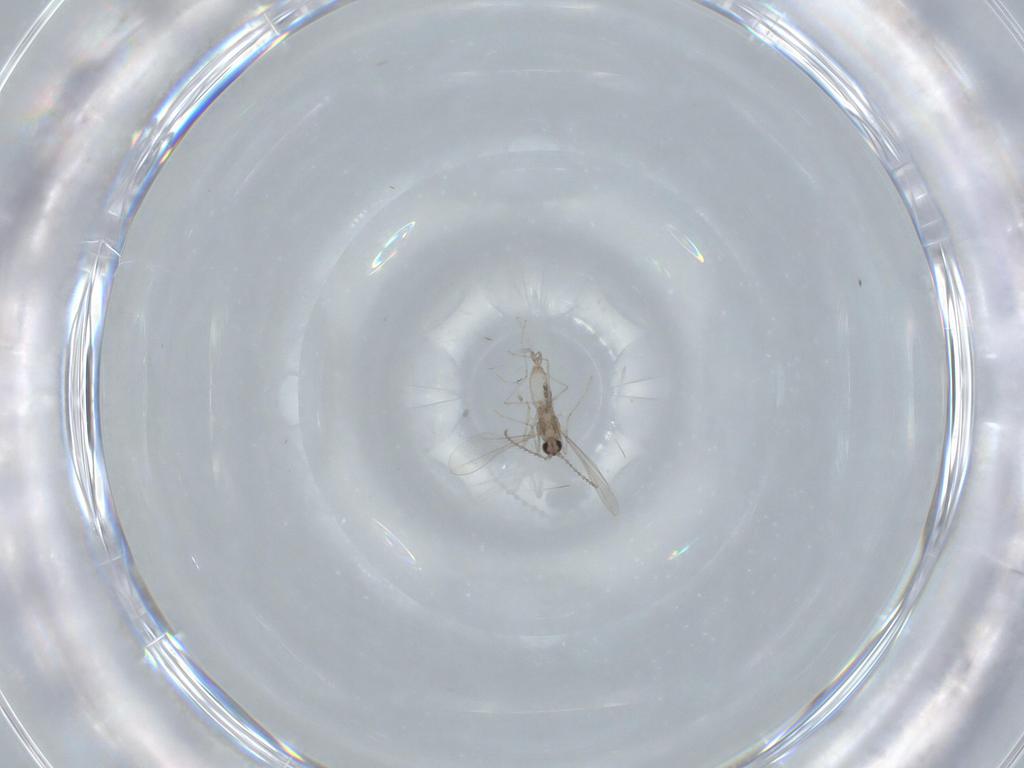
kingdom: Animalia
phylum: Arthropoda
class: Insecta
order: Diptera
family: Cecidomyiidae
